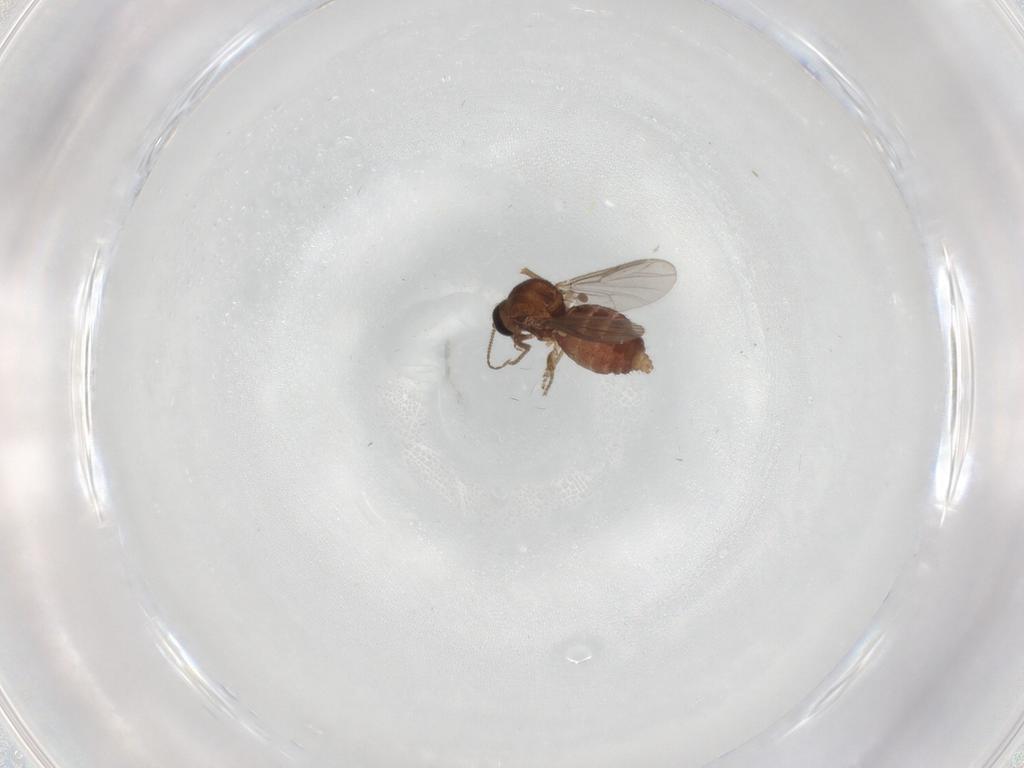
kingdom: Animalia
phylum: Arthropoda
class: Insecta
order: Diptera
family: Ceratopogonidae
